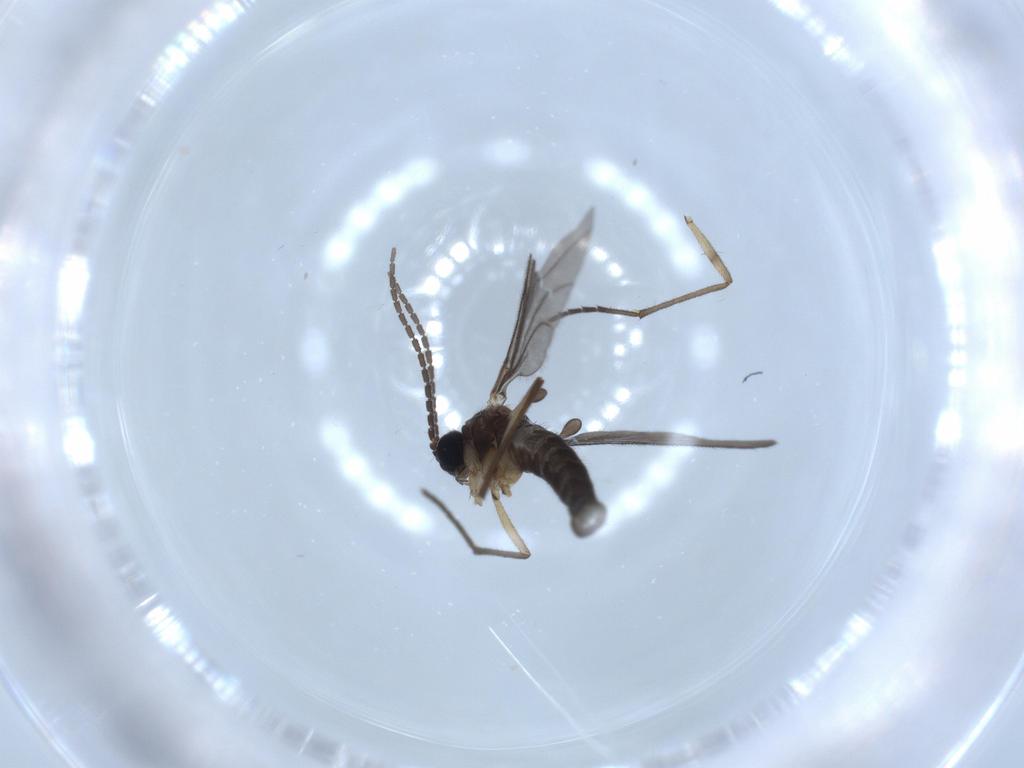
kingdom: Animalia
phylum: Arthropoda
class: Insecta
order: Diptera
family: Sciaridae
